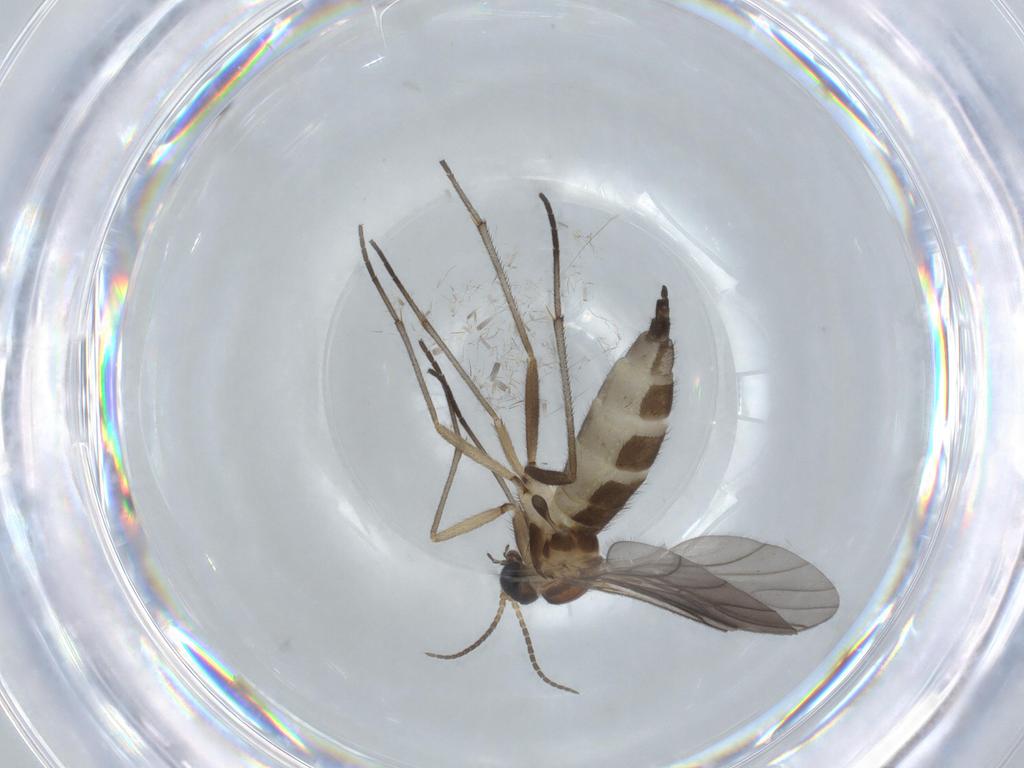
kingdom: Animalia
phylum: Arthropoda
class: Insecta
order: Diptera
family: Sciaridae
